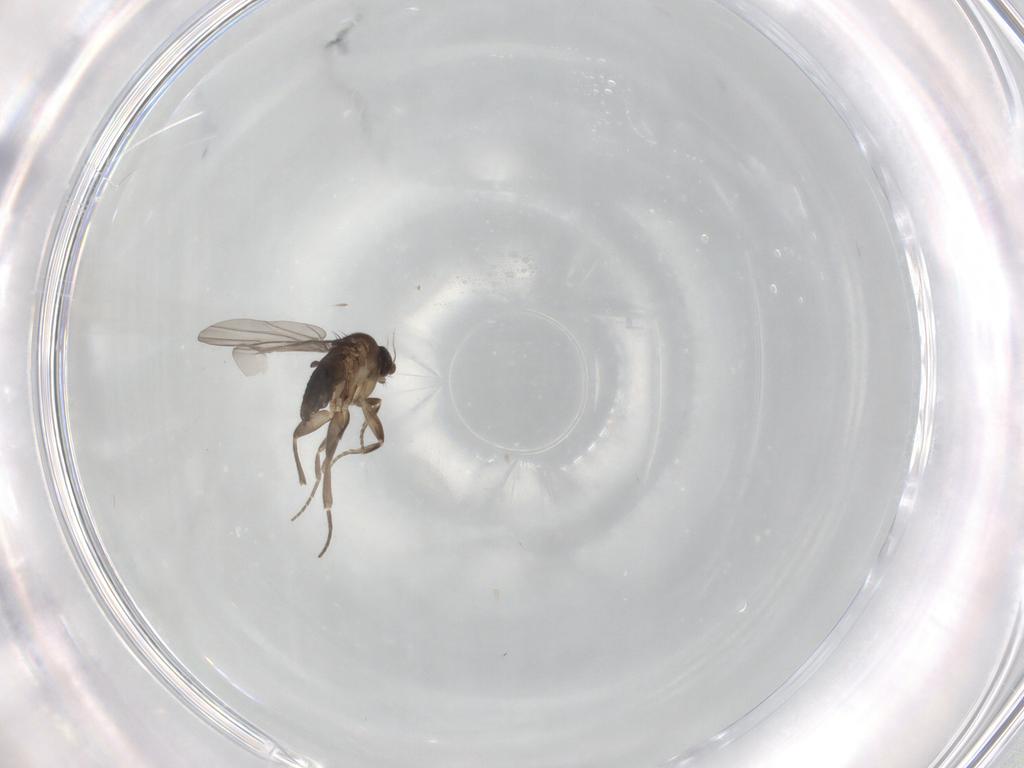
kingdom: Animalia
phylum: Arthropoda
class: Insecta
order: Diptera
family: Phoridae
